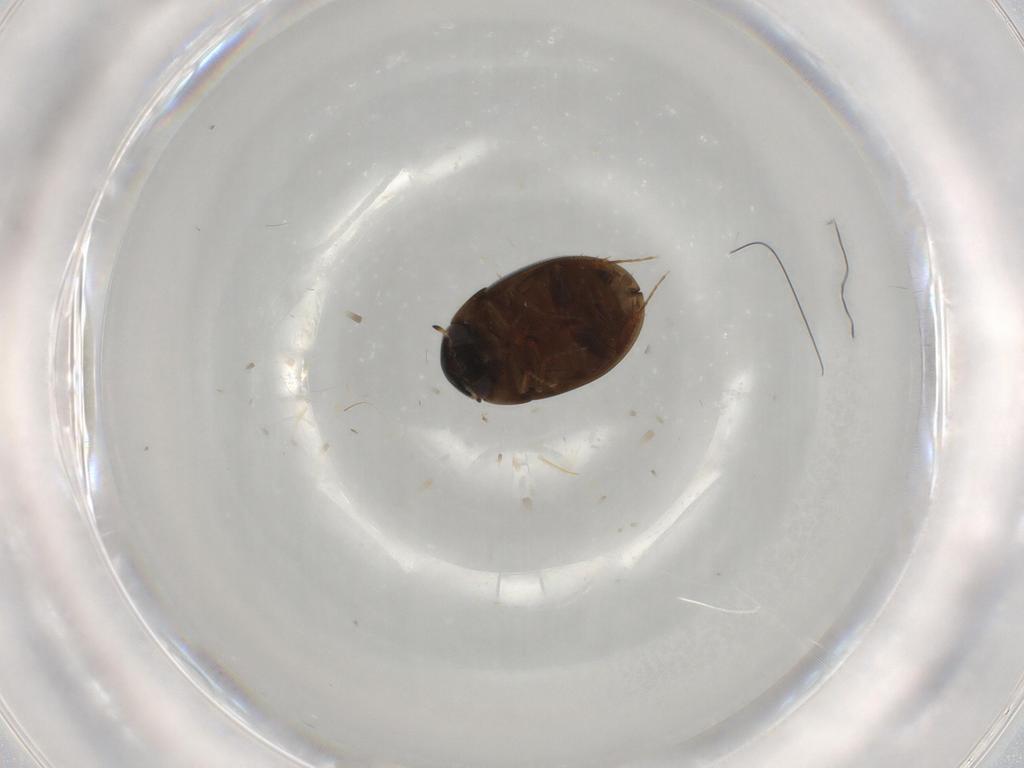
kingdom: Animalia
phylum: Arthropoda
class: Insecta
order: Coleoptera
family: Hydrophilidae
